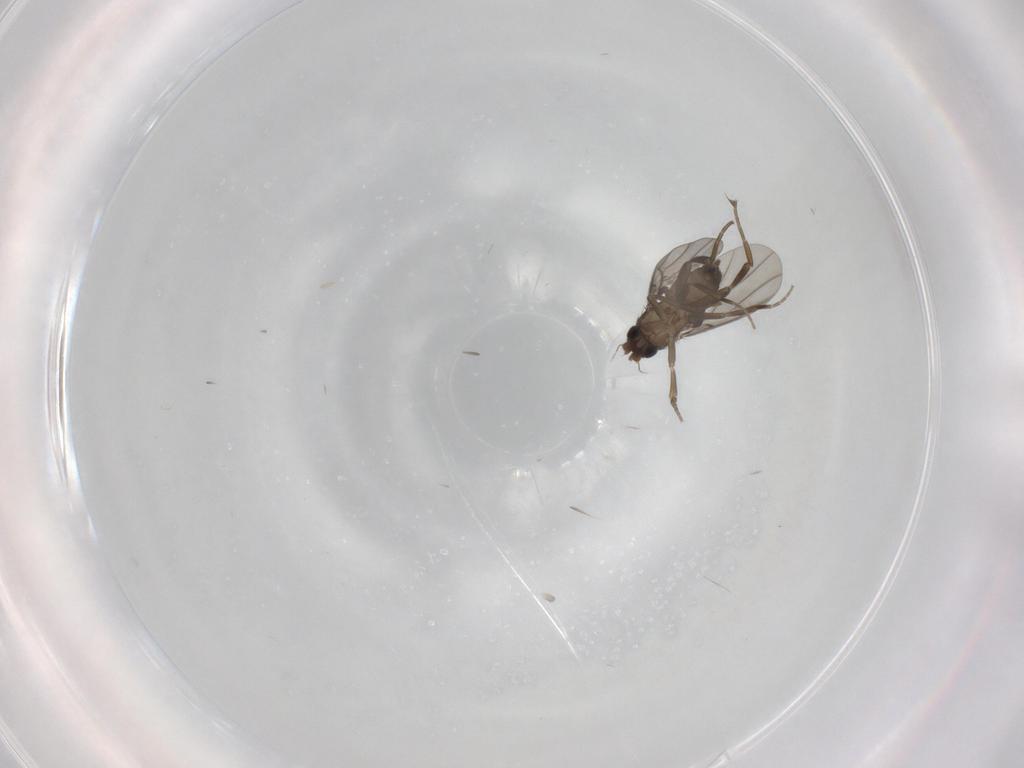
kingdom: Animalia
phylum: Arthropoda
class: Insecta
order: Diptera
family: Phoridae
